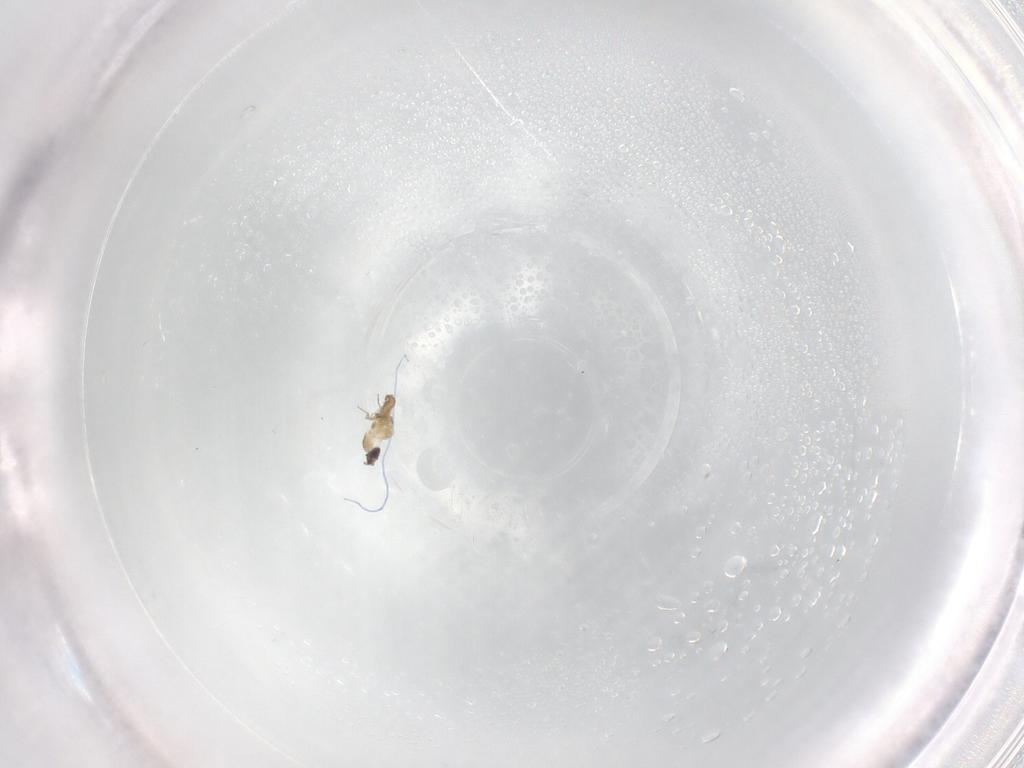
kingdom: Animalia
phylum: Arthropoda
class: Insecta
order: Diptera
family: Cecidomyiidae
